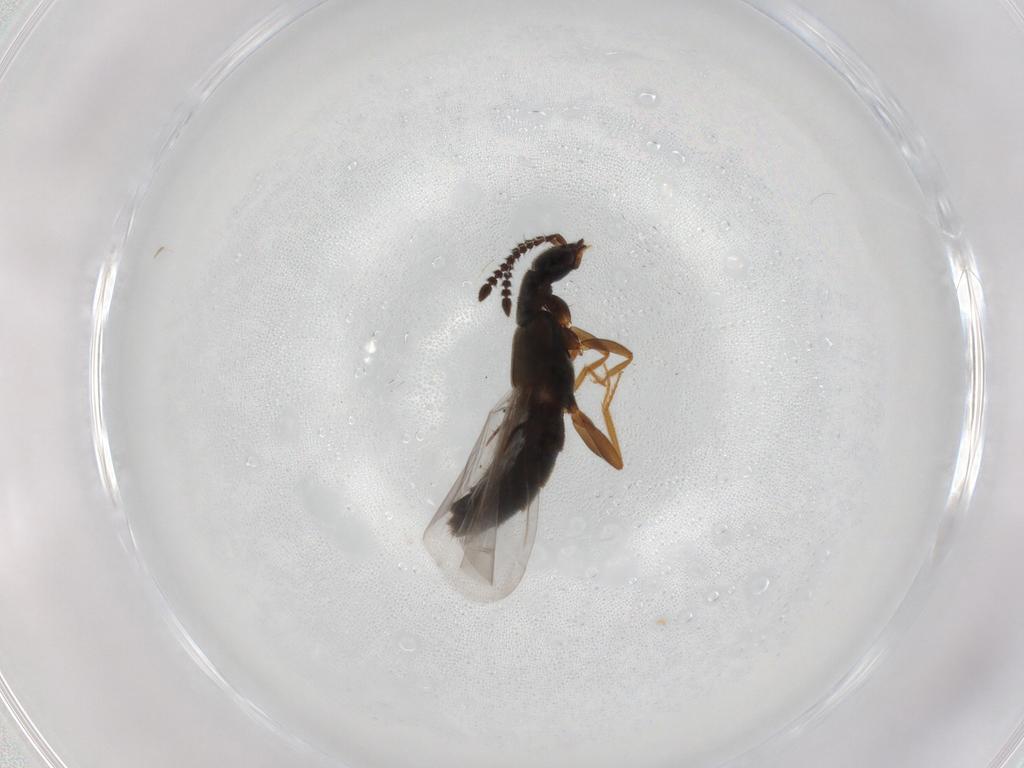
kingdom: Animalia
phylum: Arthropoda
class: Insecta
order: Coleoptera
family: Staphylinidae
